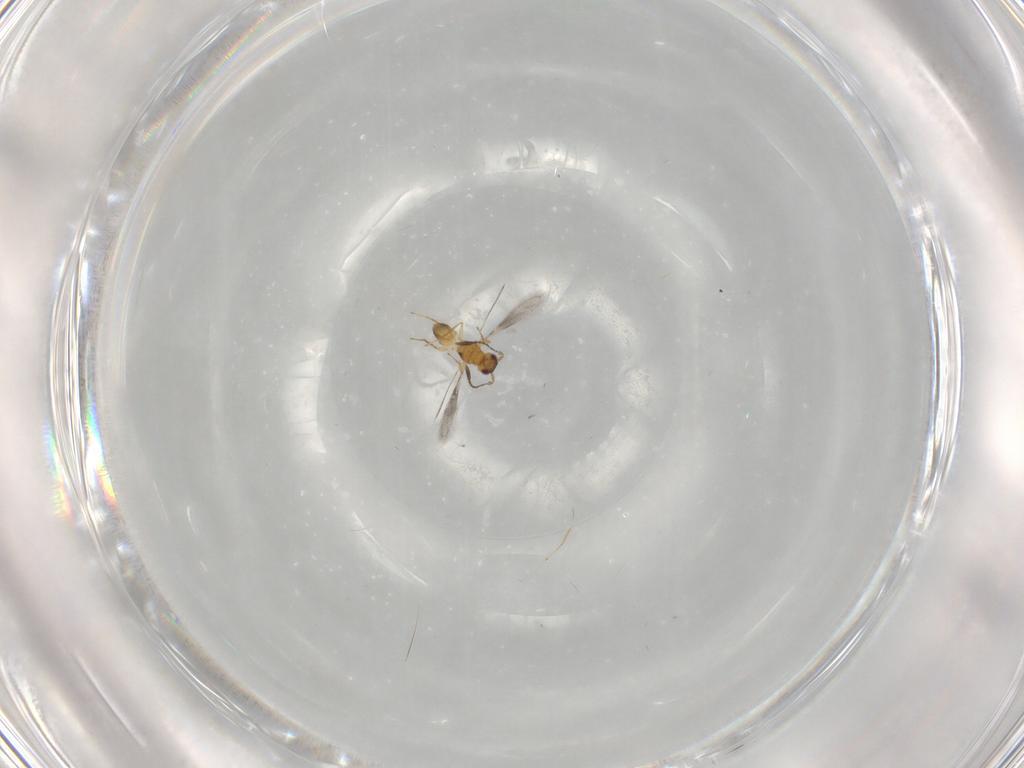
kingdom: Animalia
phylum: Arthropoda
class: Insecta
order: Hymenoptera
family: Mymaridae
